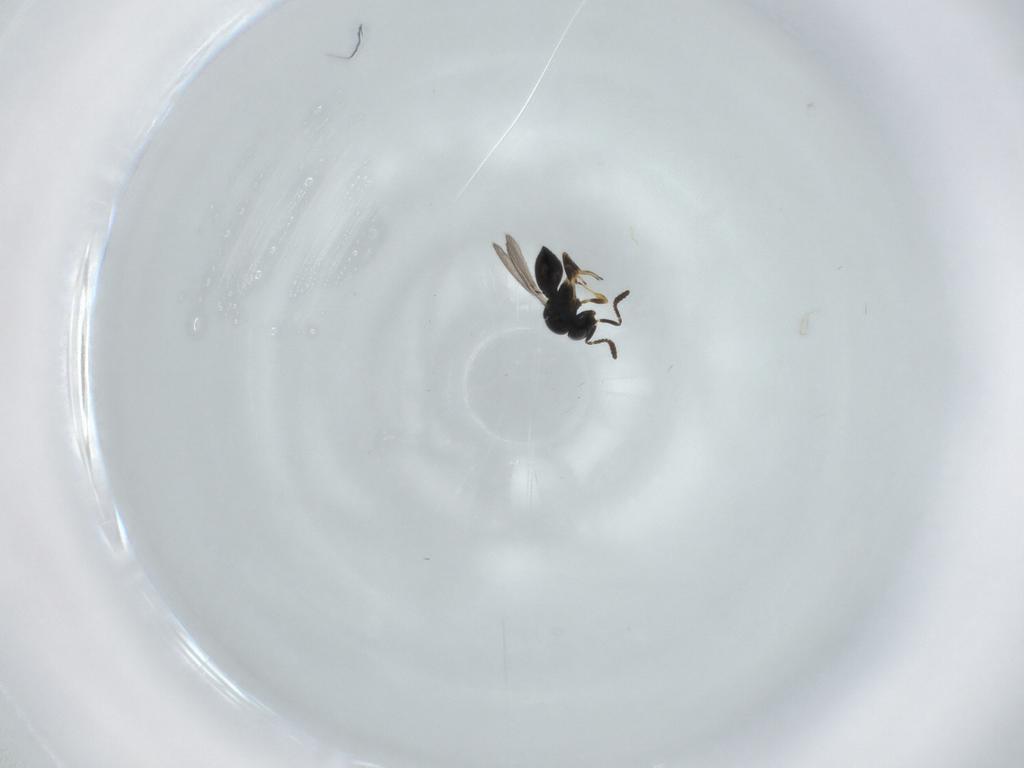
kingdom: Animalia
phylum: Arthropoda
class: Insecta
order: Hymenoptera
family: Scelionidae
